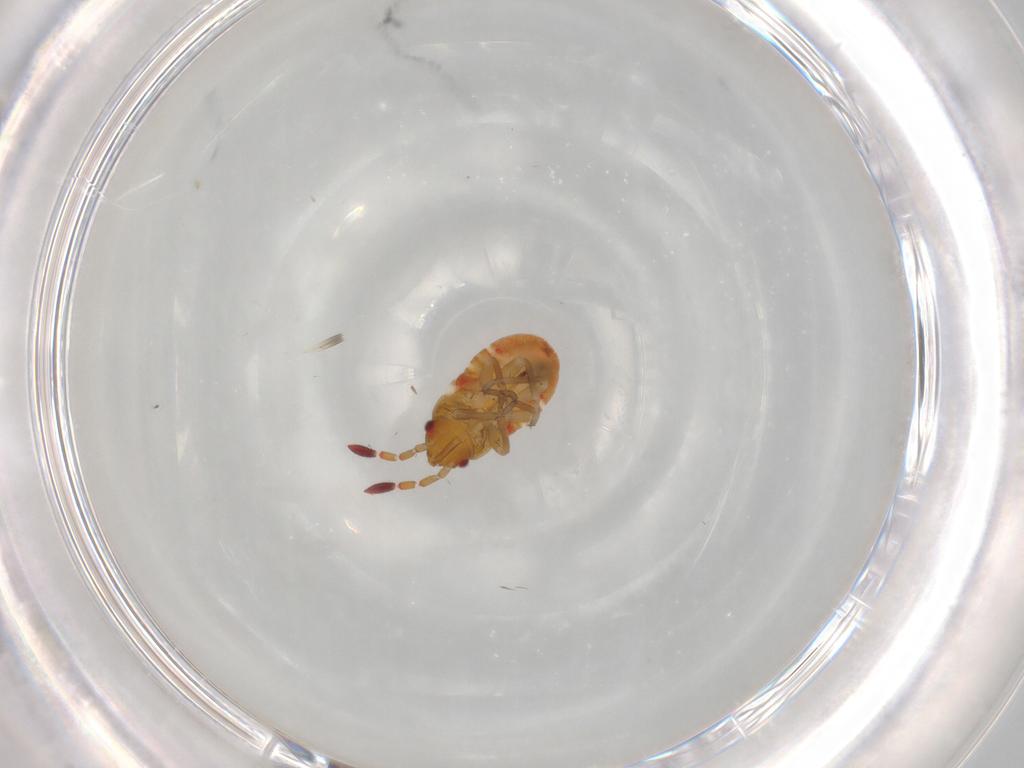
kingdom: Animalia
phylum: Arthropoda
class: Insecta
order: Hemiptera
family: Rhyparochromidae
